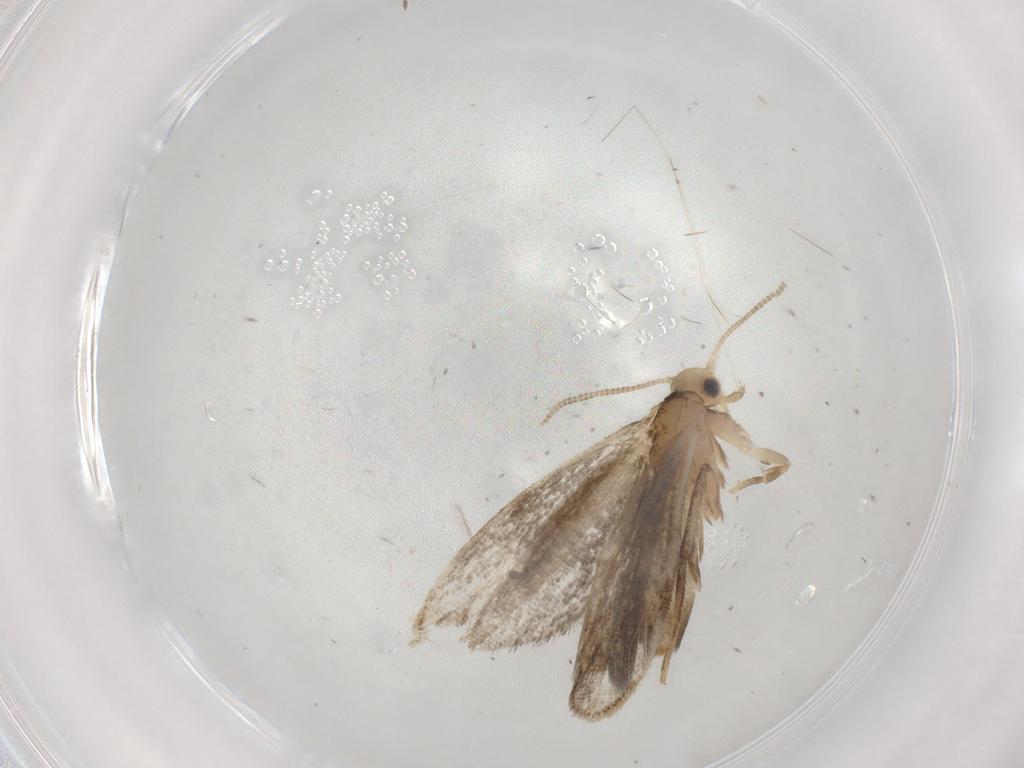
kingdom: Animalia
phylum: Arthropoda
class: Insecta
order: Lepidoptera
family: Dryadaulidae
